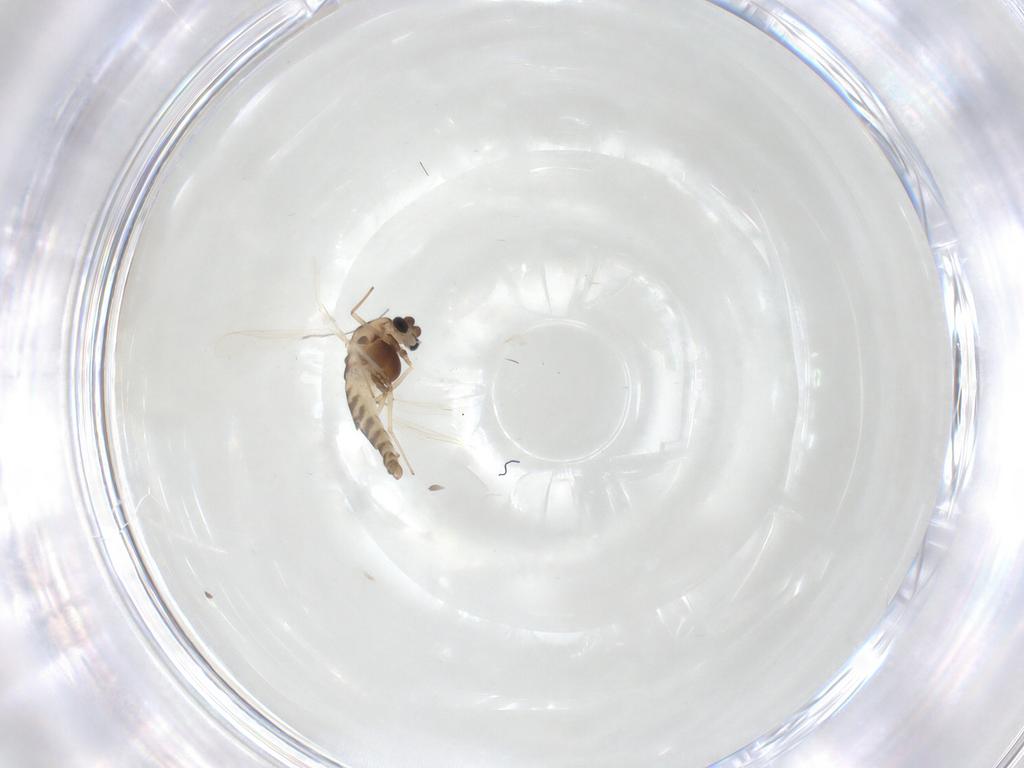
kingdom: Animalia
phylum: Arthropoda
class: Insecta
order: Diptera
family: Chironomidae
